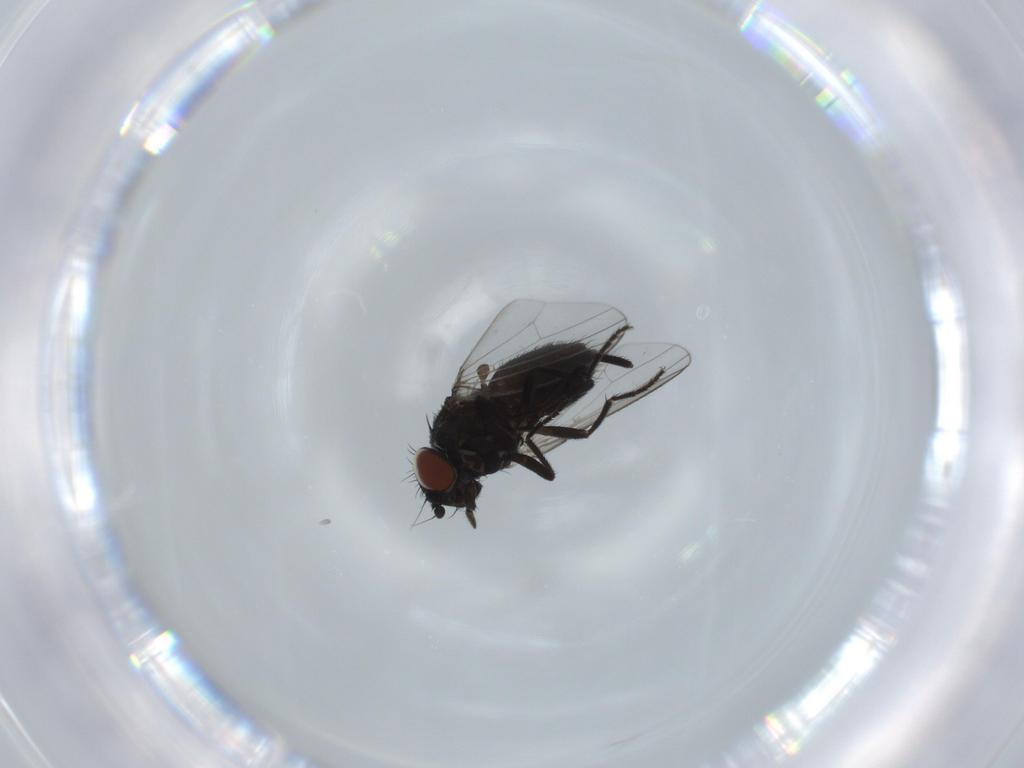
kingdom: Animalia
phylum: Arthropoda
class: Insecta
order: Diptera
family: Milichiidae
